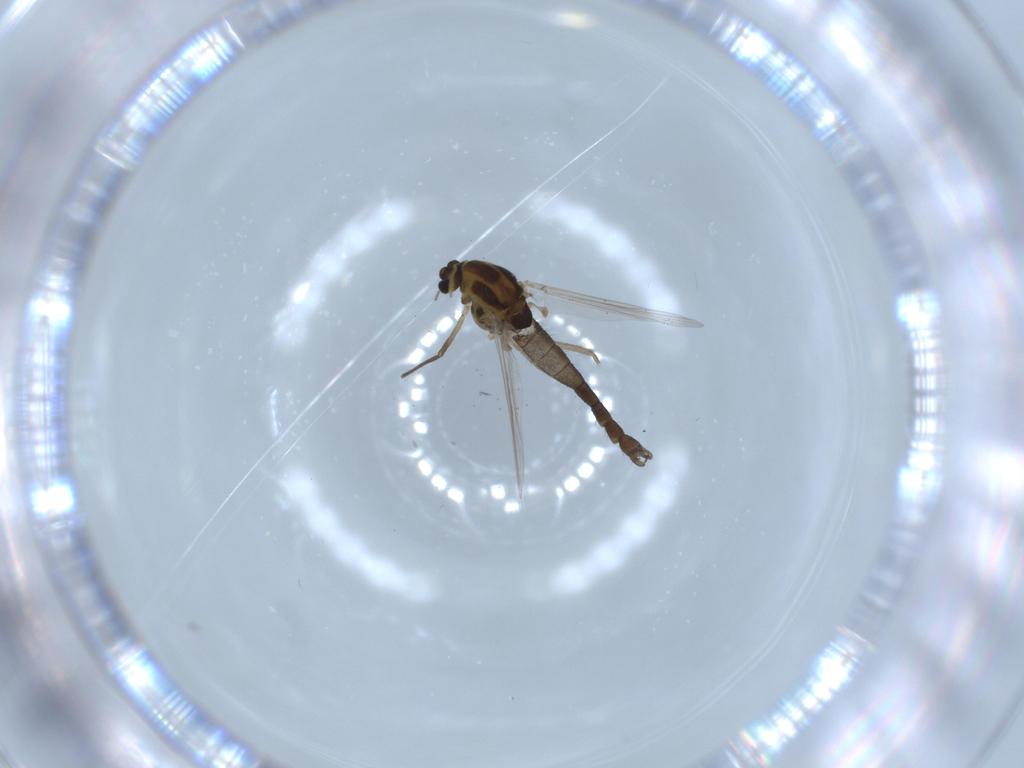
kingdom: Animalia
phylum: Arthropoda
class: Insecta
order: Diptera
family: Chironomidae
